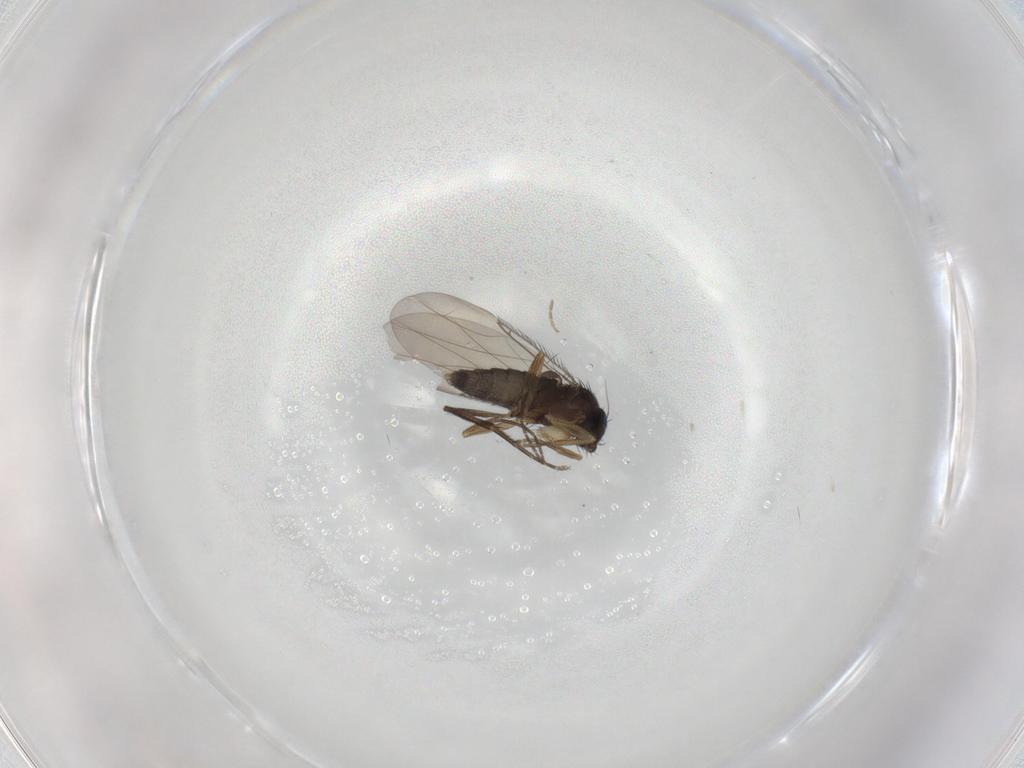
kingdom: Animalia
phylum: Arthropoda
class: Insecta
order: Diptera
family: Phoridae
